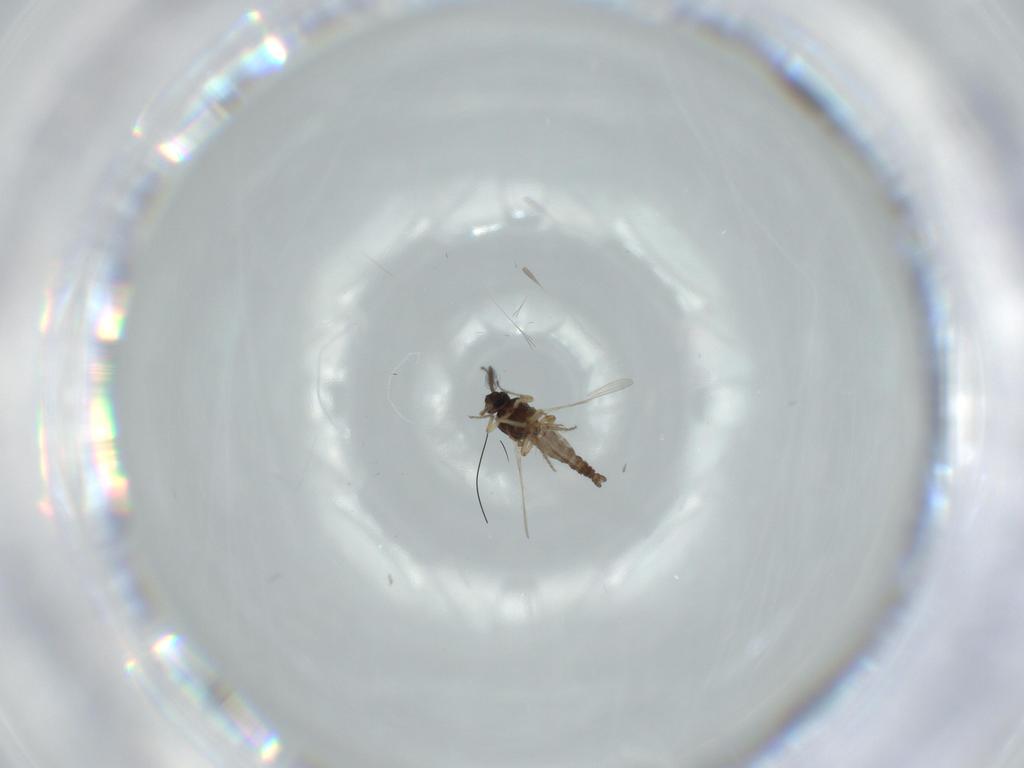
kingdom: Animalia
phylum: Arthropoda
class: Insecta
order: Diptera
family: Ceratopogonidae
